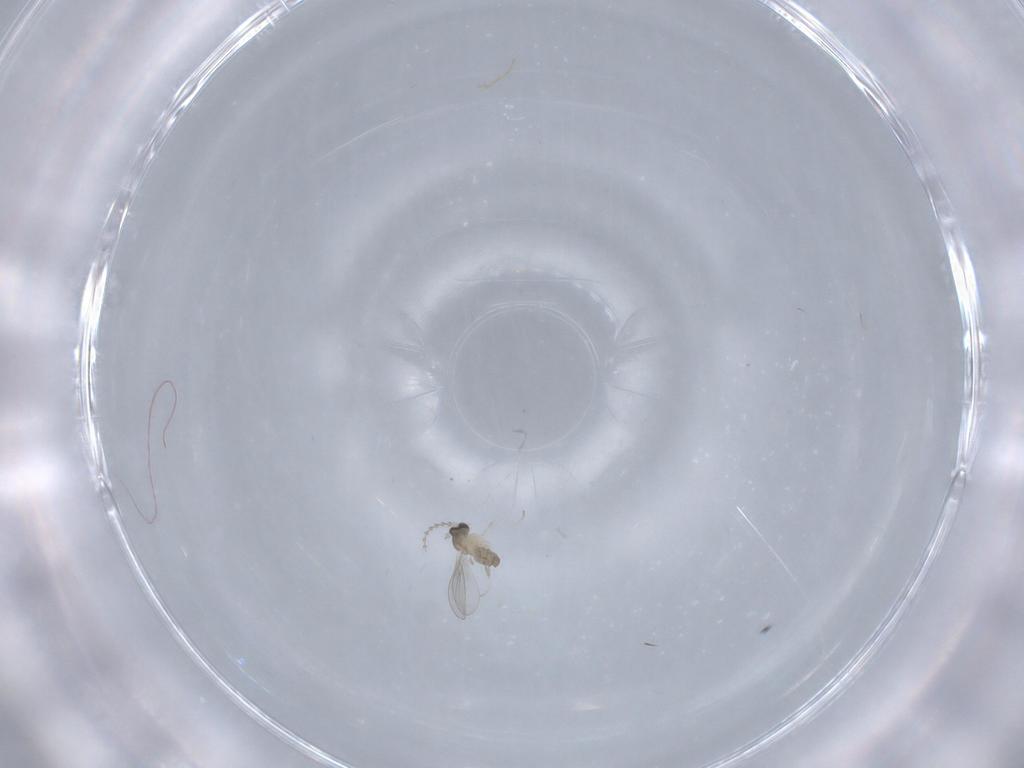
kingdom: Animalia
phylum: Arthropoda
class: Insecta
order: Diptera
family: Cecidomyiidae
